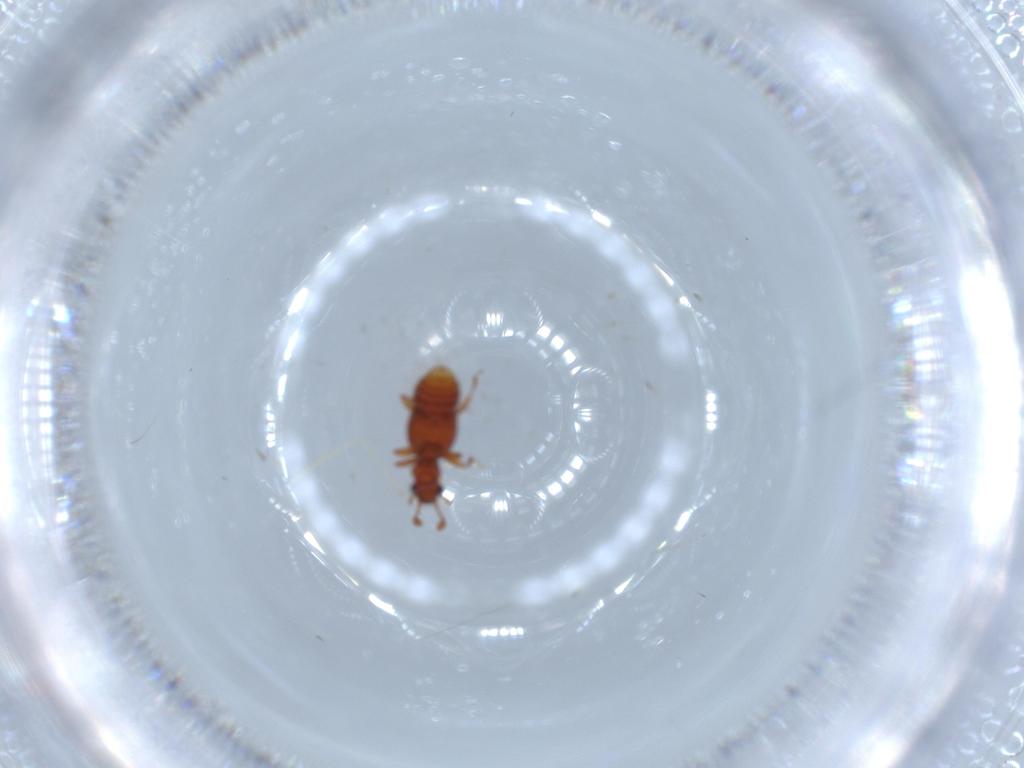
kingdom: Animalia
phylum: Arthropoda
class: Insecta
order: Coleoptera
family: Staphylinidae
